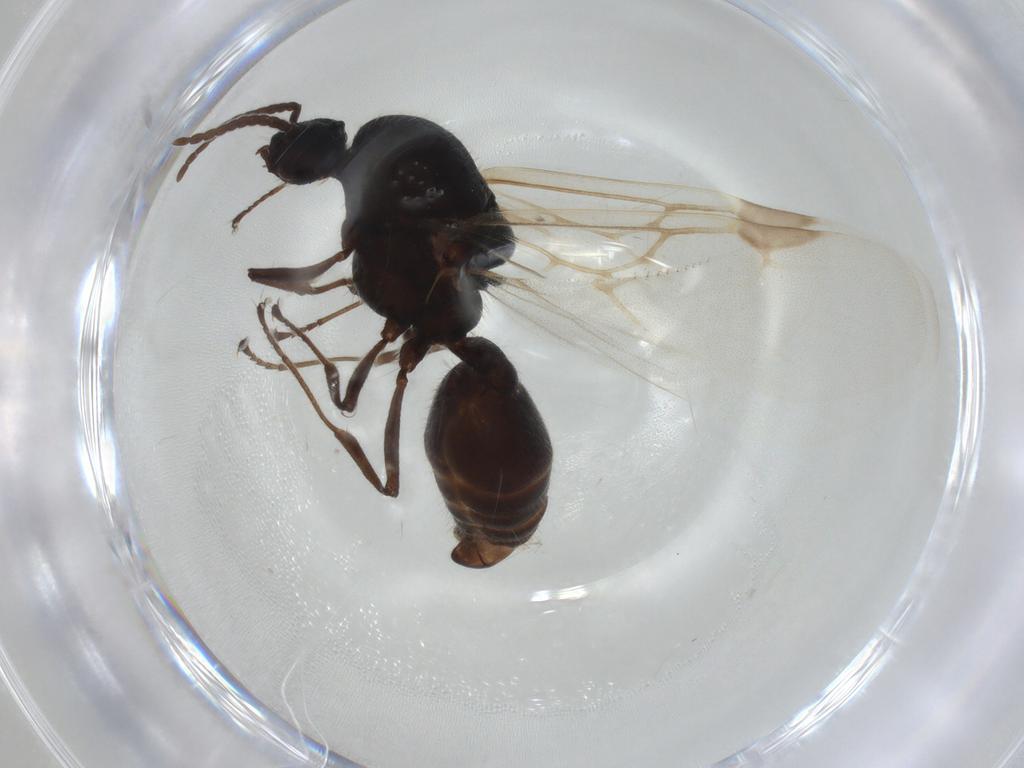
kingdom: Animalia
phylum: Arthropoda
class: Insecta
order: Hymenoptera
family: Formicidae
